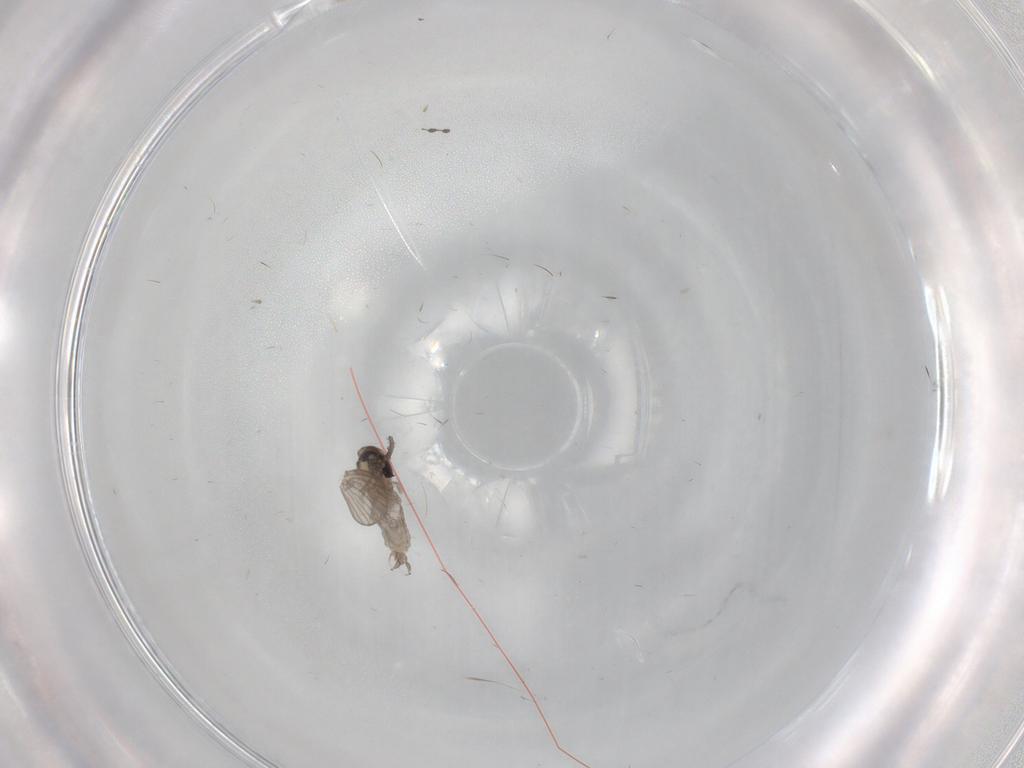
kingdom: Animalia
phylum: Arthropoda
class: Insecta
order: Diptera
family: Psychodidae
